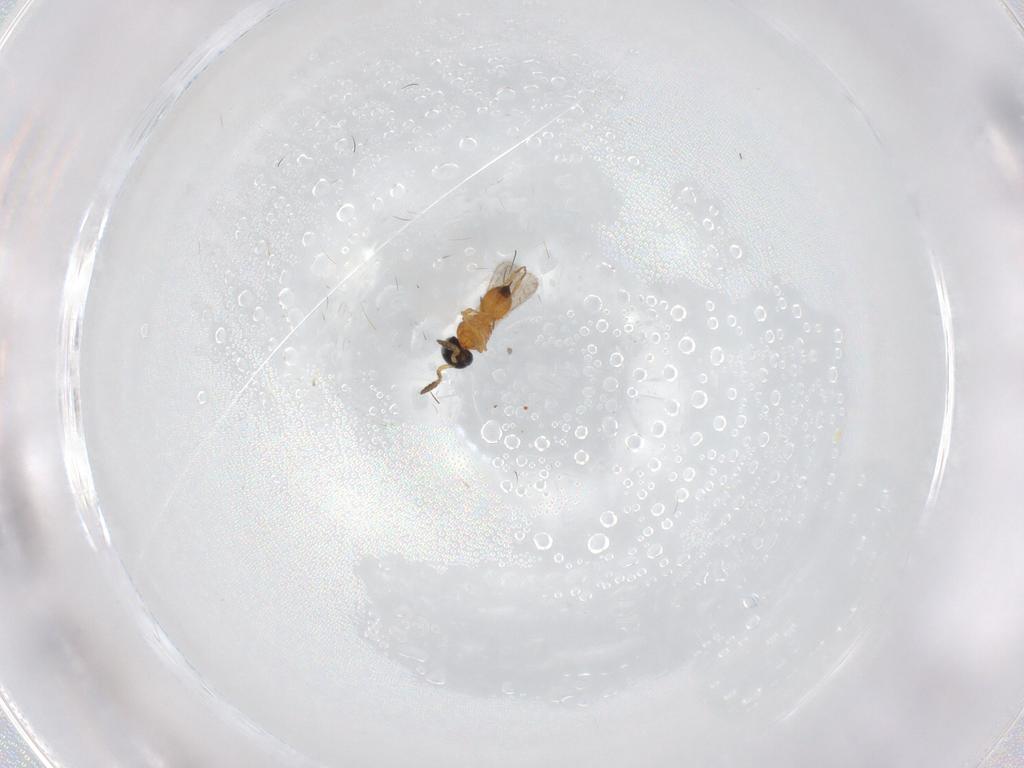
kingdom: Animalia
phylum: Arthropoda
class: Insecta
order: Hymenoptera
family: Scelionidae
